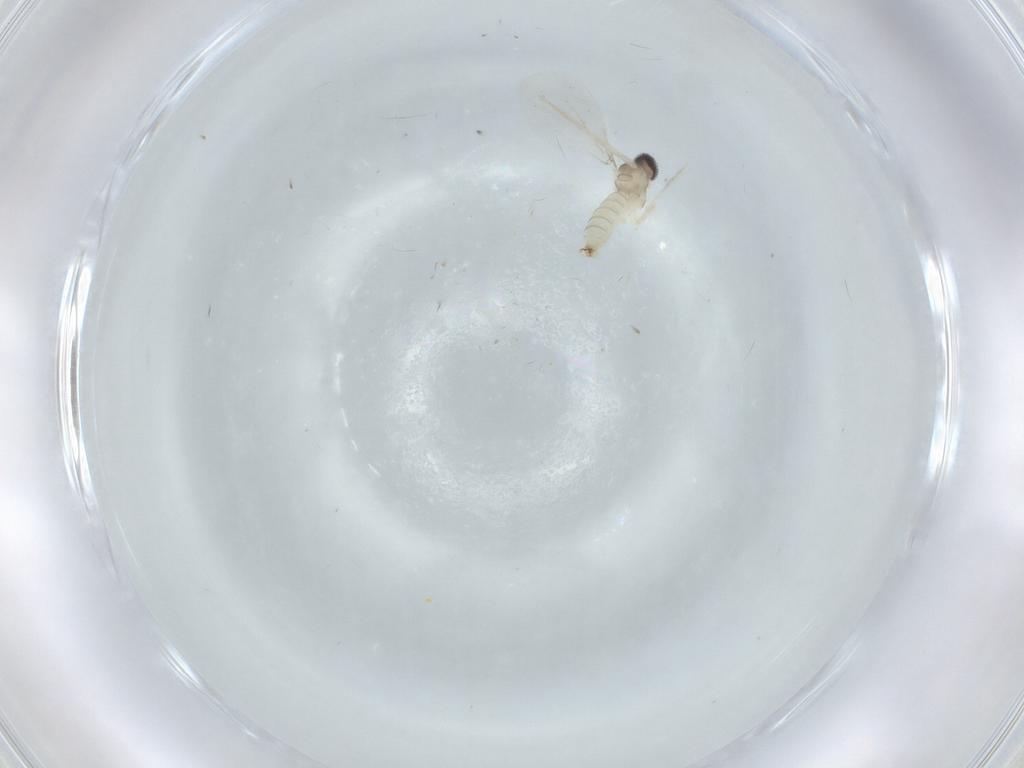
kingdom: Animalia
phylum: Arthropoda
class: Insecta
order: Diptera
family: Cecidomyiidae
